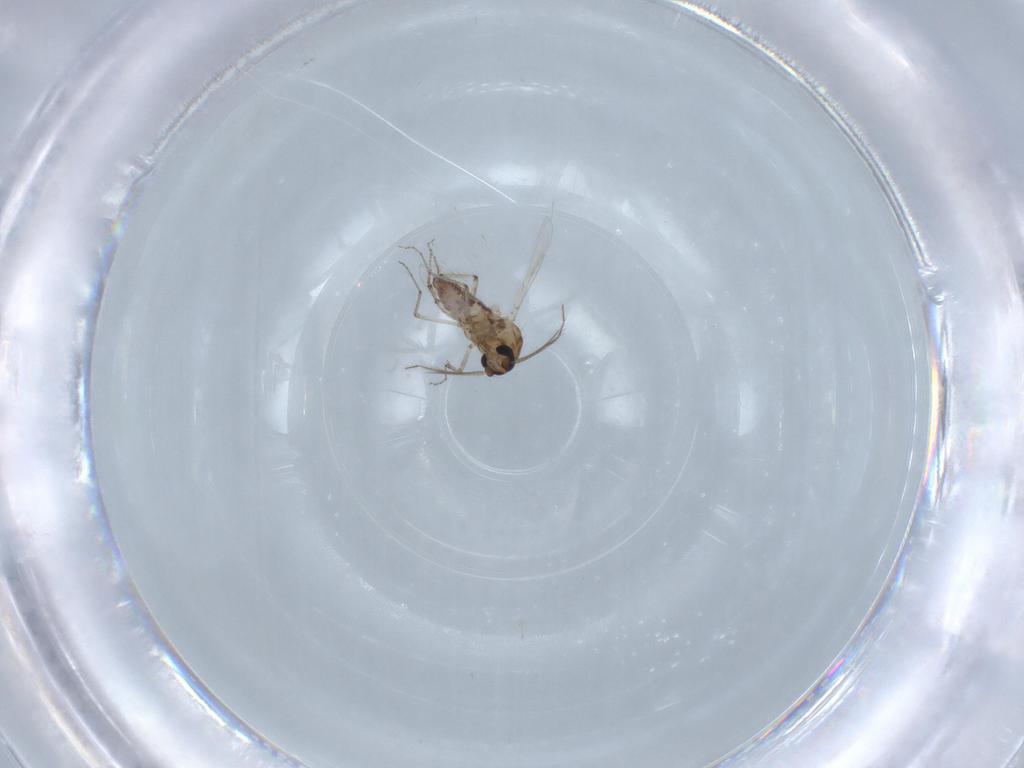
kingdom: Animalia
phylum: Arthropoda
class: Insecta
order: Diptera
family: Ceratopogonidae
